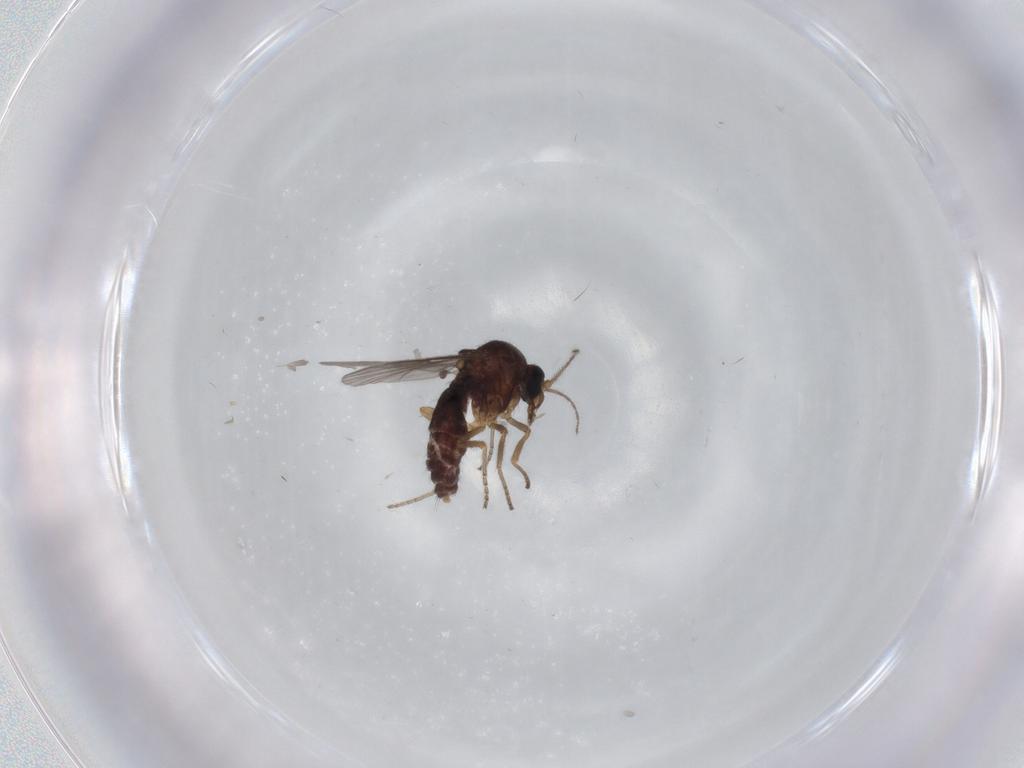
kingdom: Animalia
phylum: Arthropoda
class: Insecta
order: Diptera
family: Ceratopogonidae
